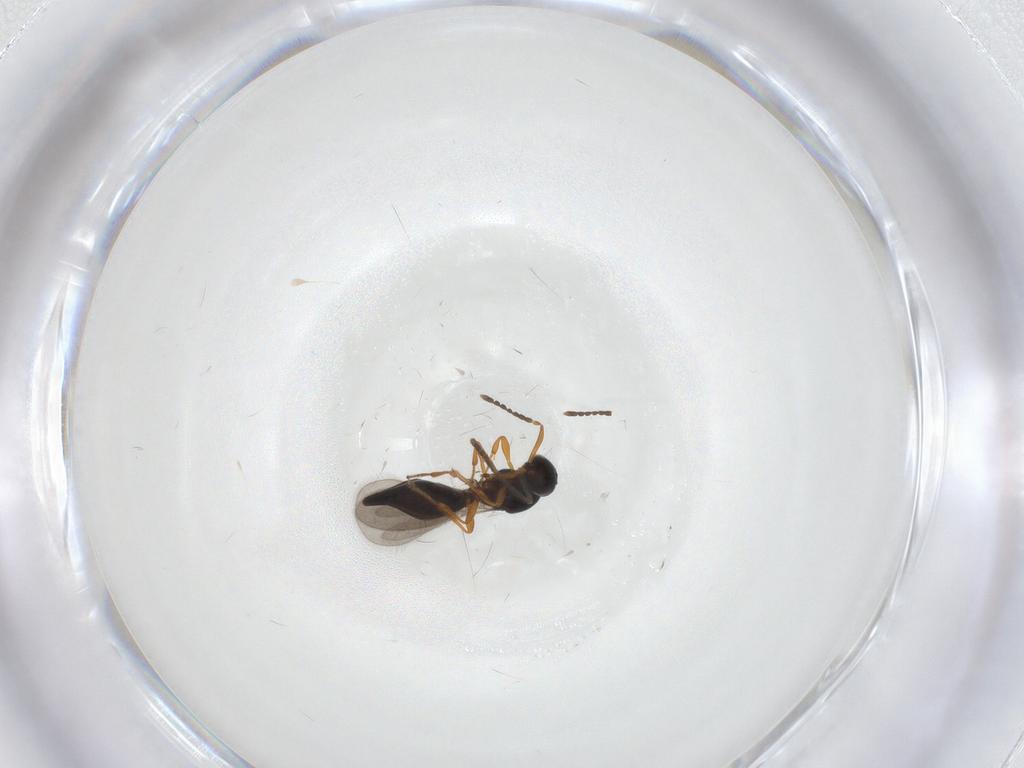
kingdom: Animalia
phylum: Arthropoda
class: Insecta
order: Hymenoptera
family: Platygastridae
